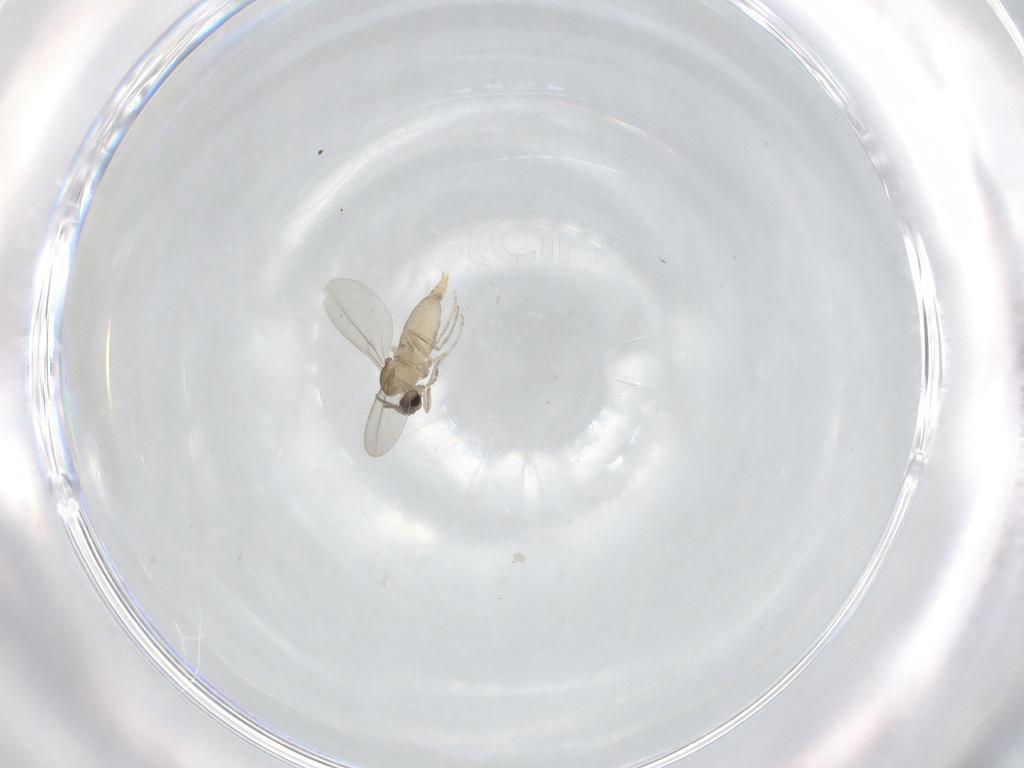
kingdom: Animalia
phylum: Arthropoda
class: Insecta
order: Diptera
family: Cecidomyiidae
